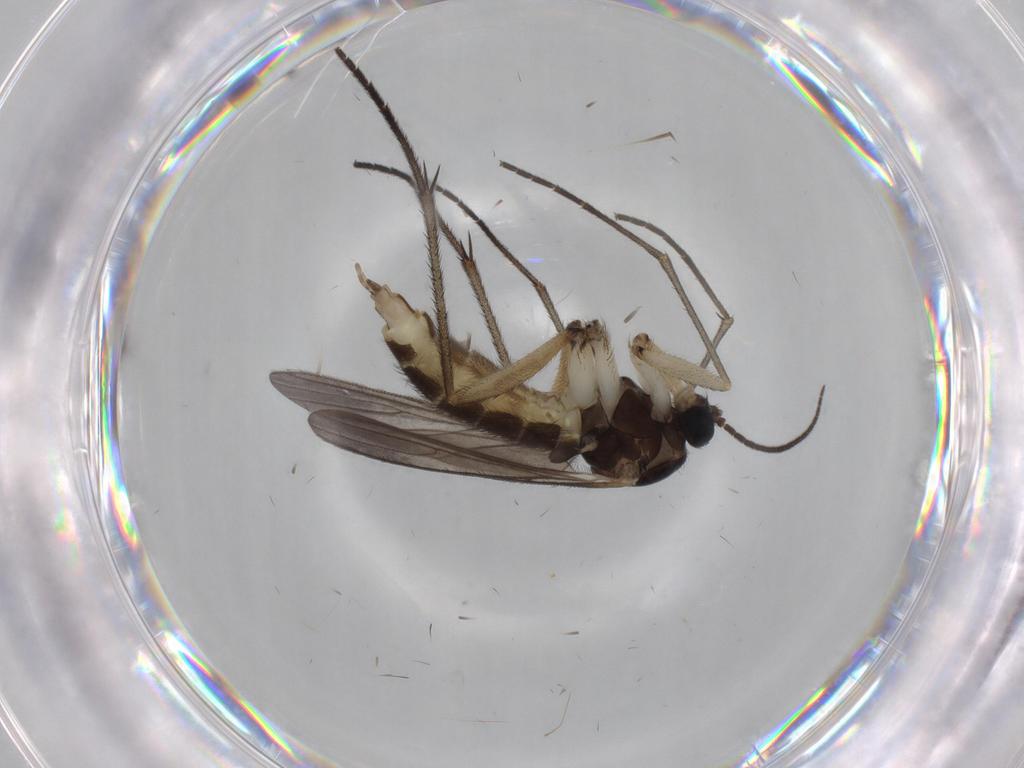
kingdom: Animalia
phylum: Arthropoda
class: Insecta
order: Diptera
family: Sciaridae
